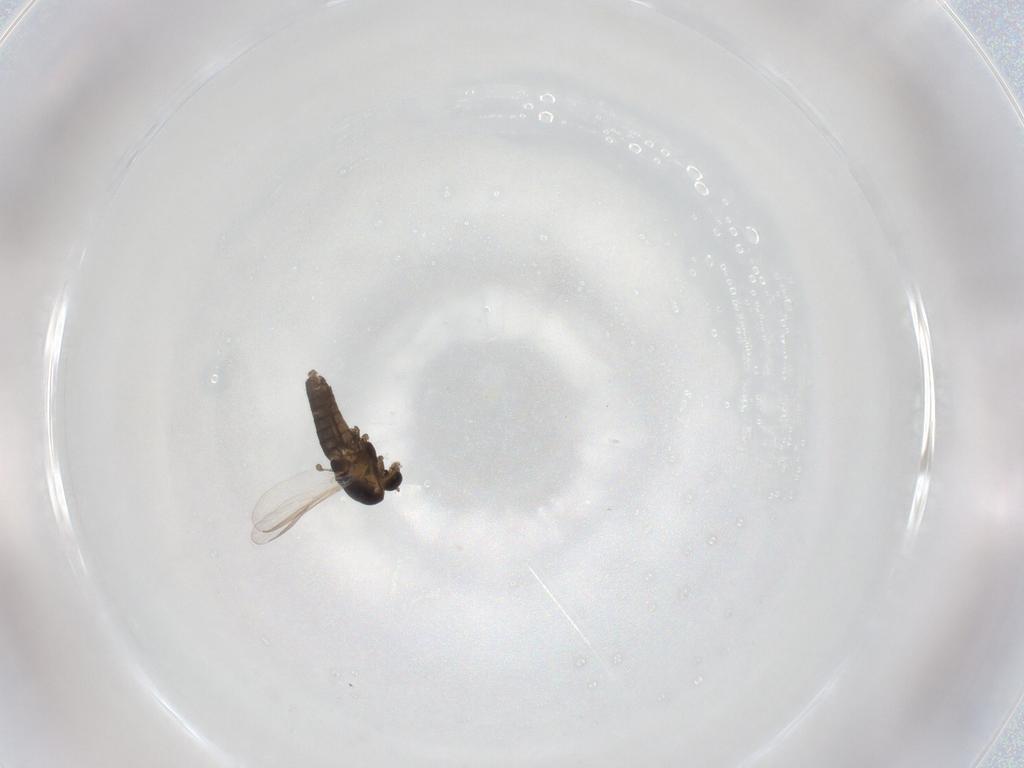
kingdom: Animalia
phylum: Arthropoda
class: Insecta
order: Diptera
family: Chironomidae
